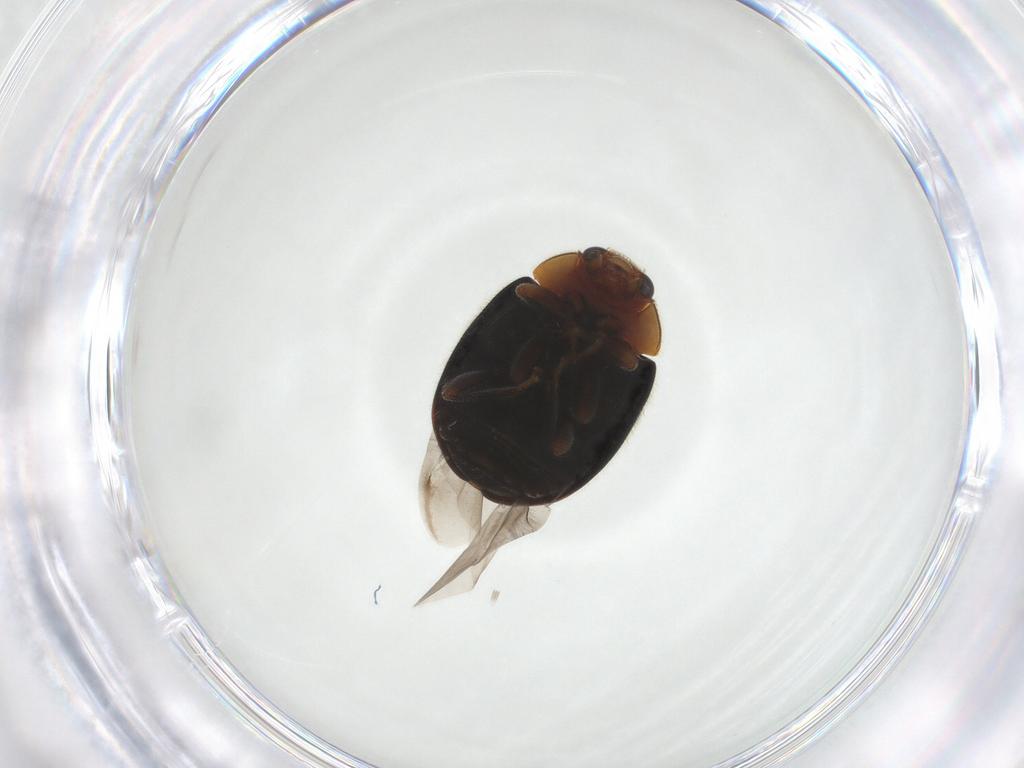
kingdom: Animalia
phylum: Arthropoda
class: Insecta
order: Coleoptera
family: Coccinellidae
